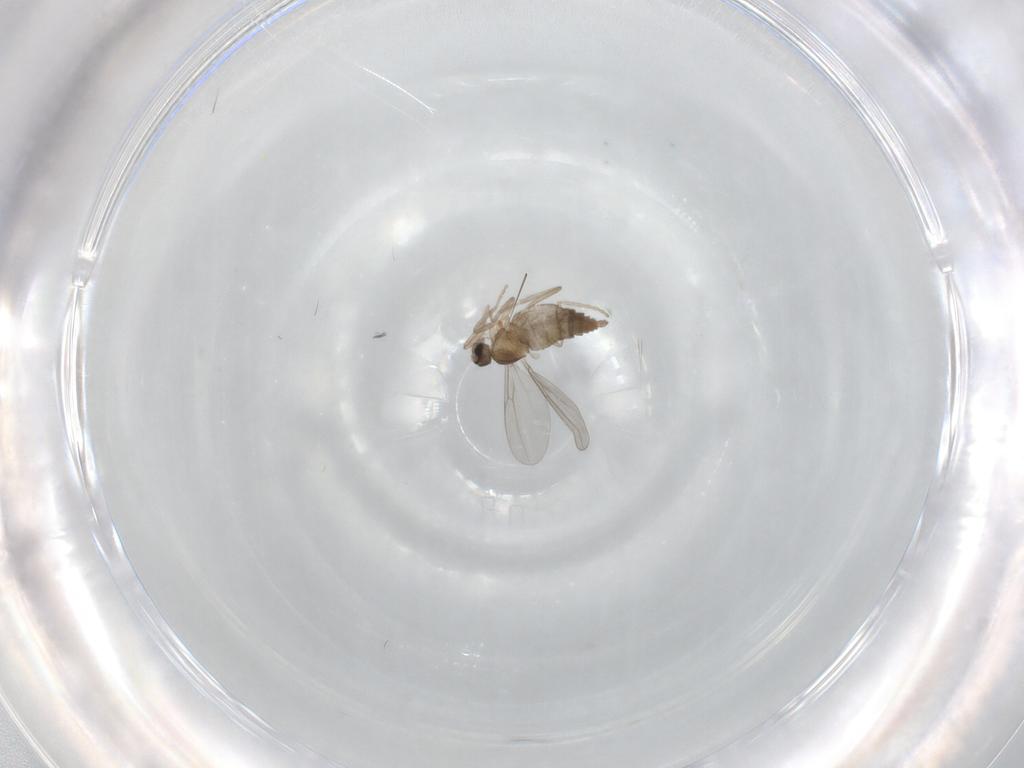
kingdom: Animalia
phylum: Arthropoda
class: Insecta
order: Diptera
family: Cecidomyiidae
